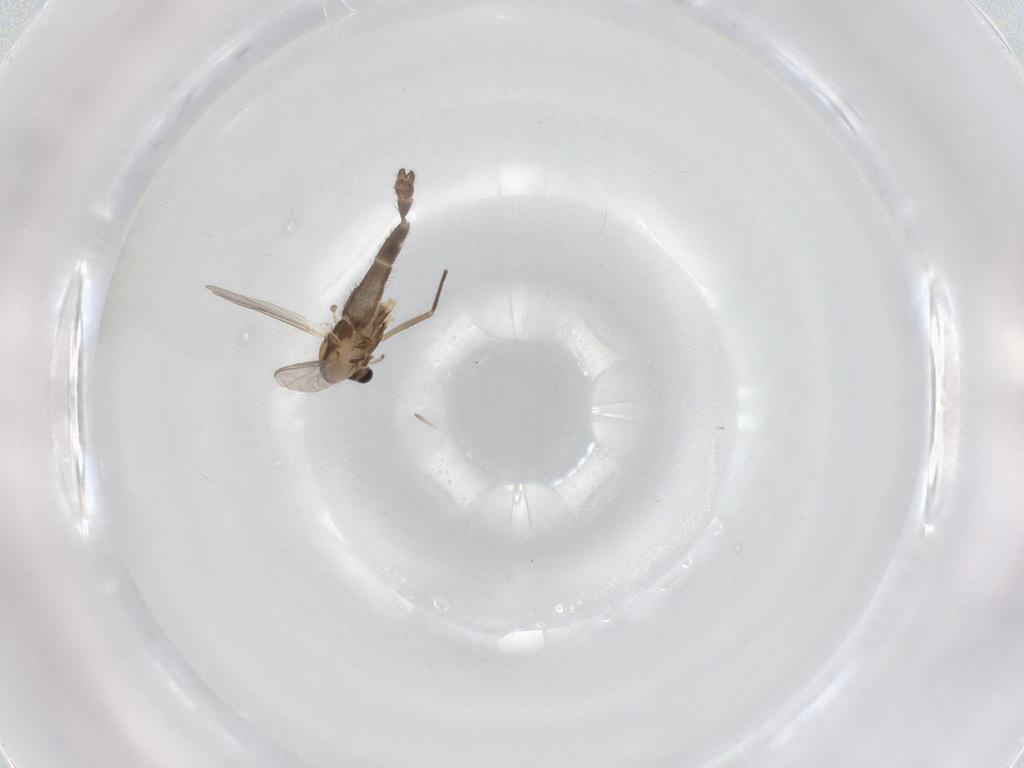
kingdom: Animalia
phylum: Arthropoda
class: Insecta
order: Diptera
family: Chironomidae
